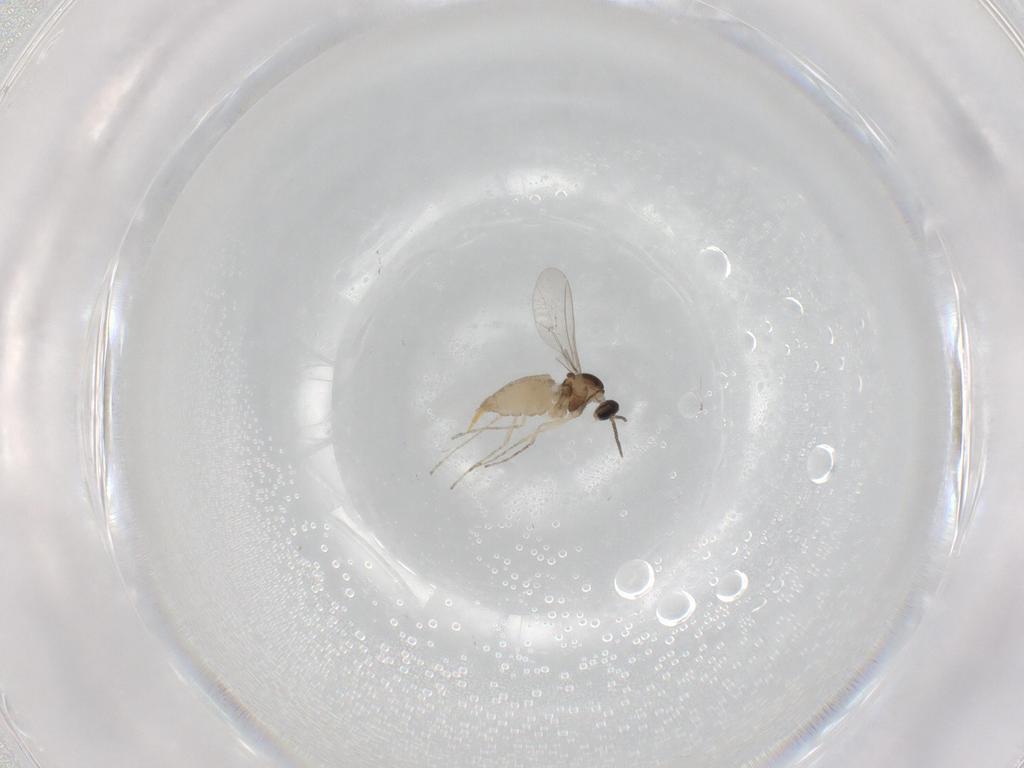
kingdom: Animalia
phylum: Arthropoda
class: Insecta
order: Diptera
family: Cecidomyiidae
